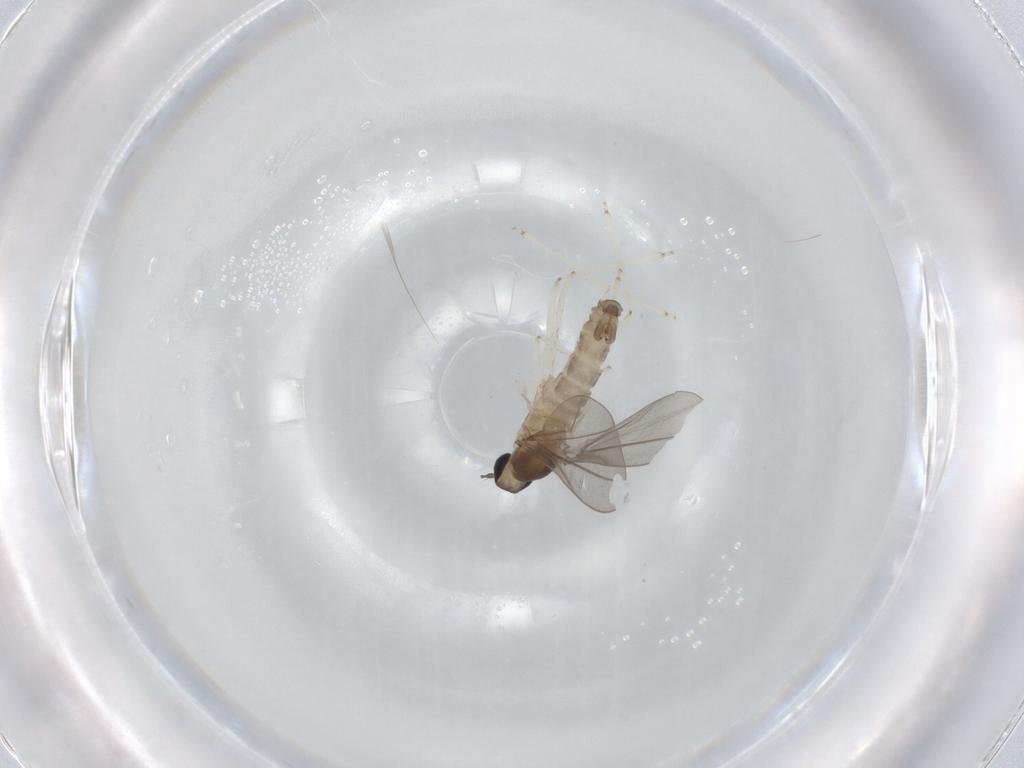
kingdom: Animalia
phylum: Arthropoda
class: Insecta
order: Diptera
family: Cecidomyiidae
